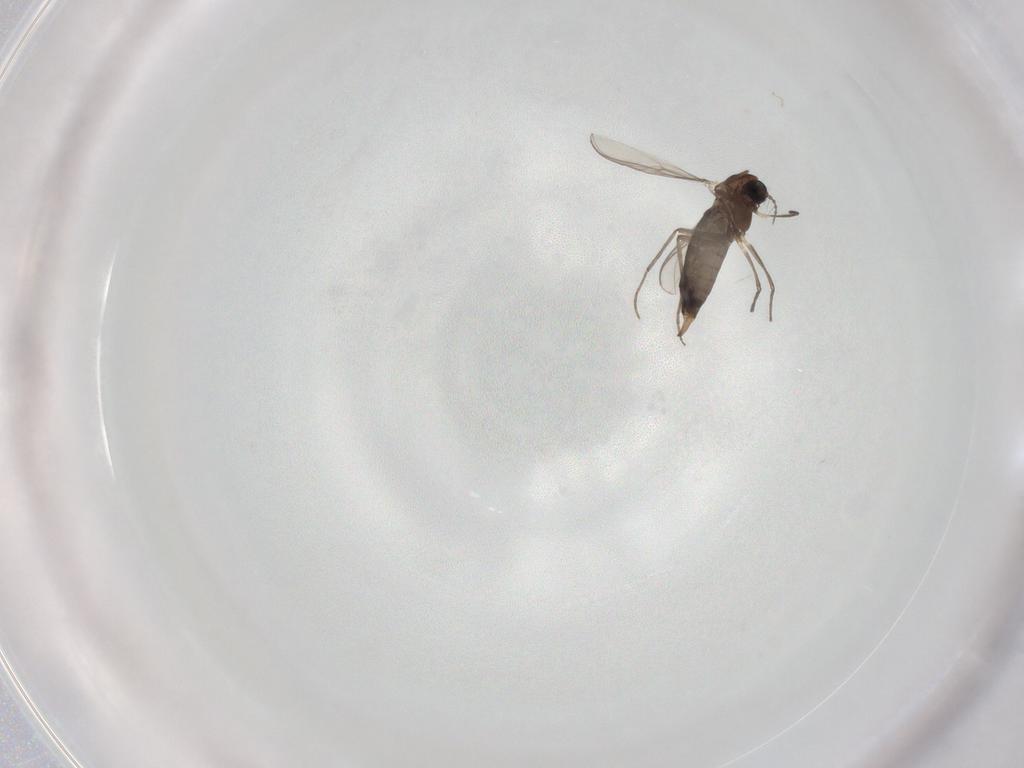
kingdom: Animalia
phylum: Arthropoda
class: Insecta
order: Diptera
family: Chironomidae
